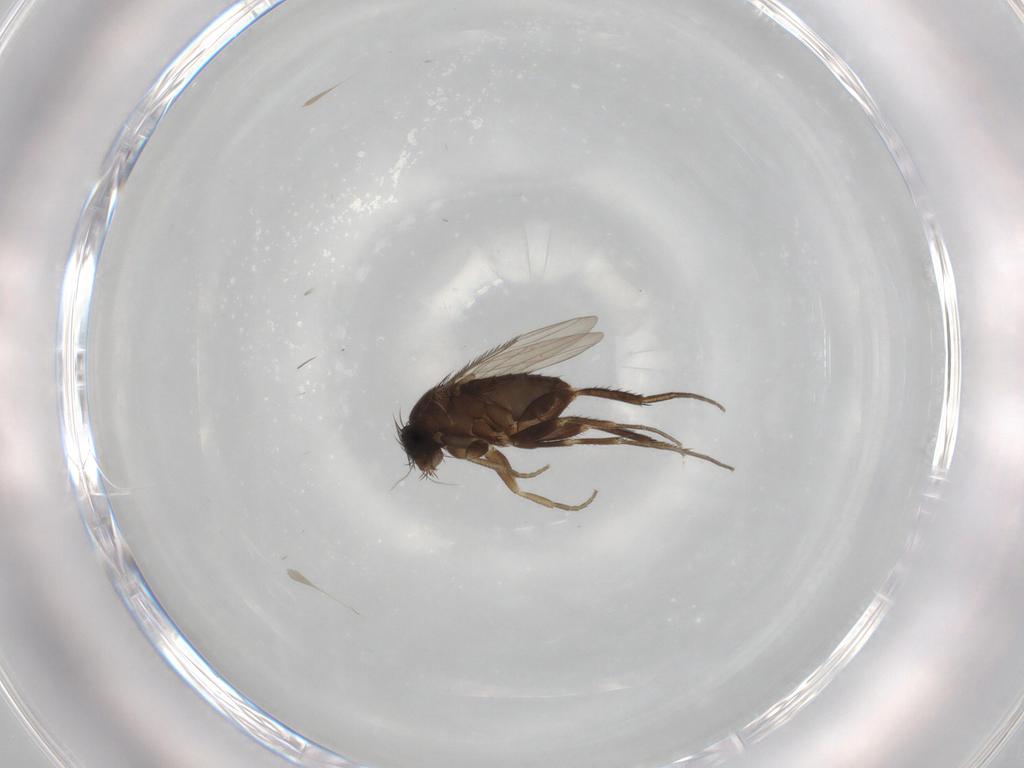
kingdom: Animalia
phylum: Arthropoda
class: Insecta
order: Diptera
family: Phoridae
